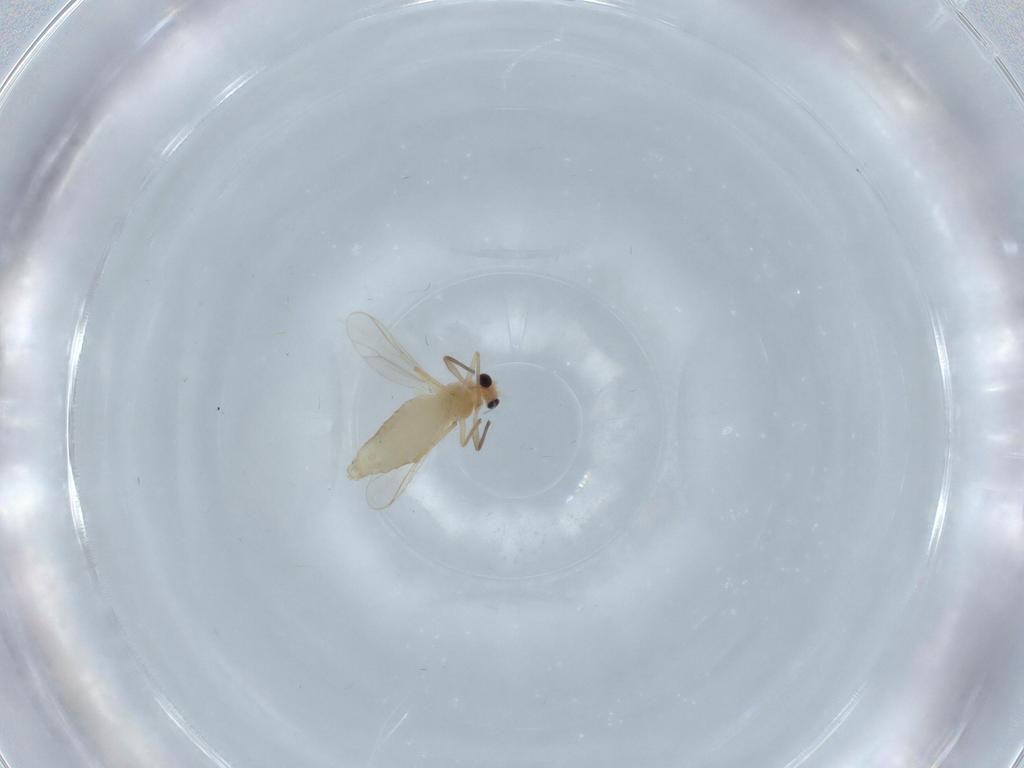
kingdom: Animalia
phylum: Arthropoda
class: Insecta
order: Diptera
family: Chironomidae
